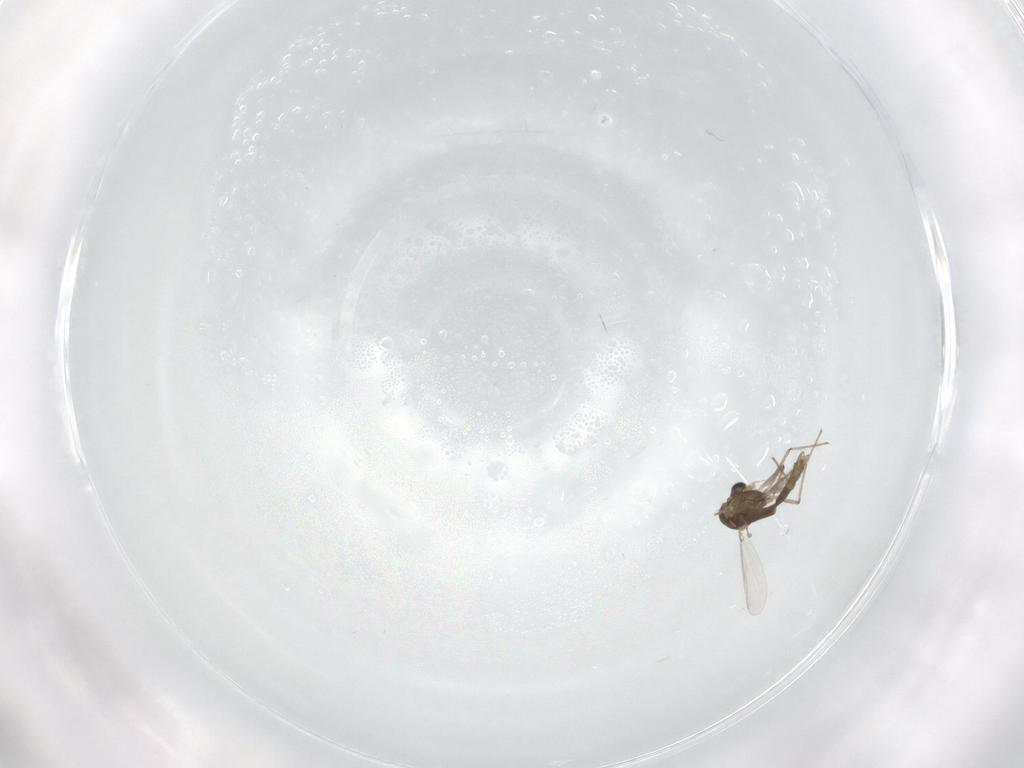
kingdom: Animalia
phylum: Arthropoda
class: Insecta
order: Diptera
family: Chironomidae
